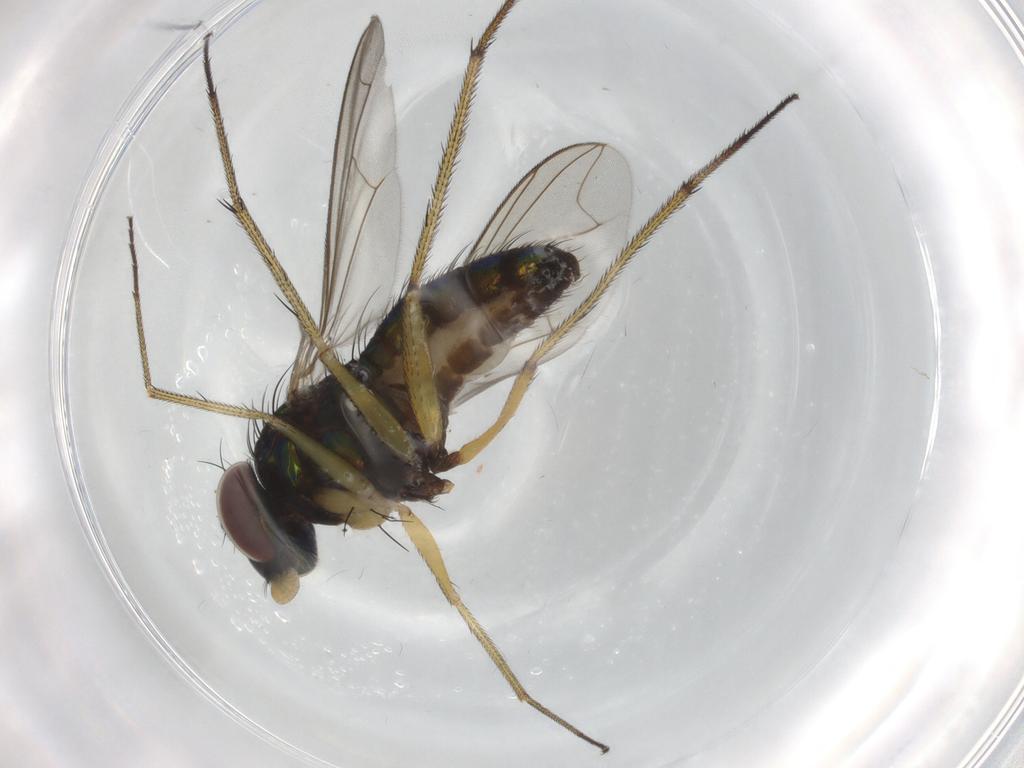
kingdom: Animalia
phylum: Arthropoda
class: Insecta
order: Diptera
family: Dolichopodidae
